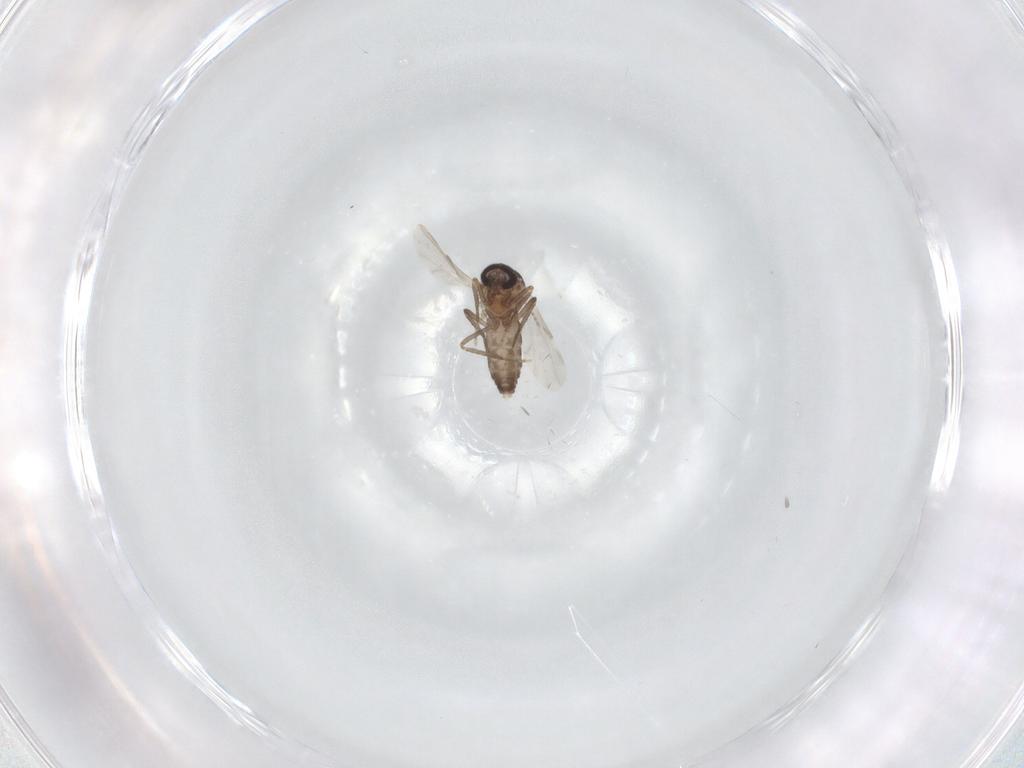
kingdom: Animalia
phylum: Arthropoda
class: Insecta
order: Diptera
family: Ceratopogonidae
